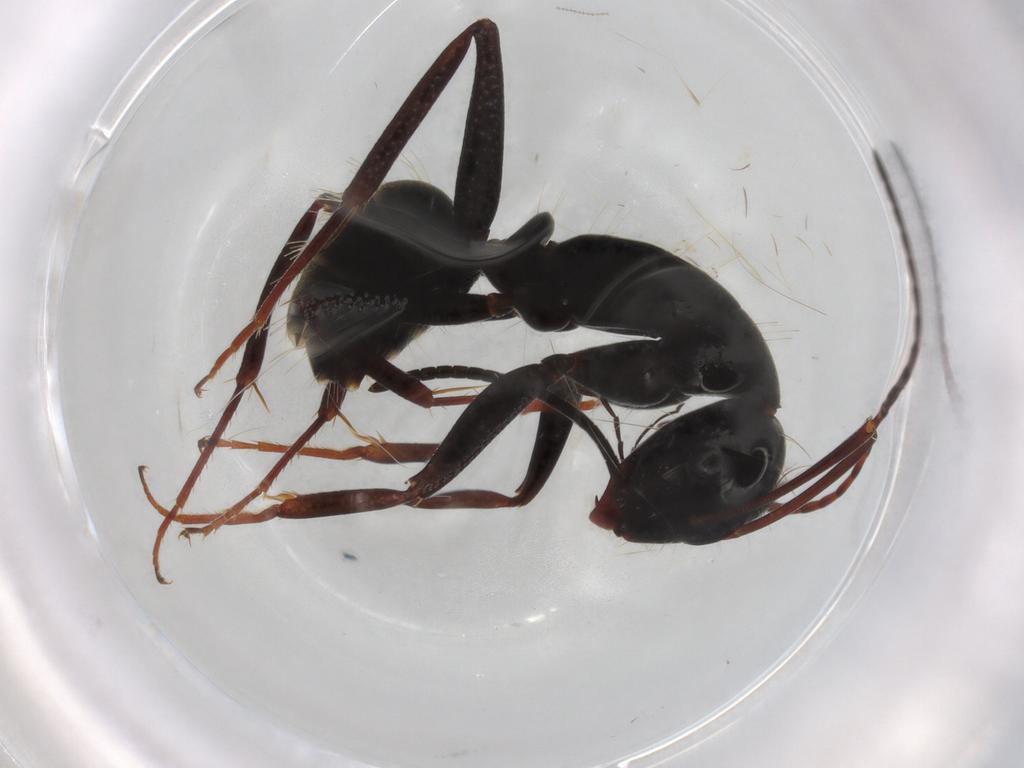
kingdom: Animalia
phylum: Arthropoda
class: Insecta
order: Hymenoptera
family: Formicidae
